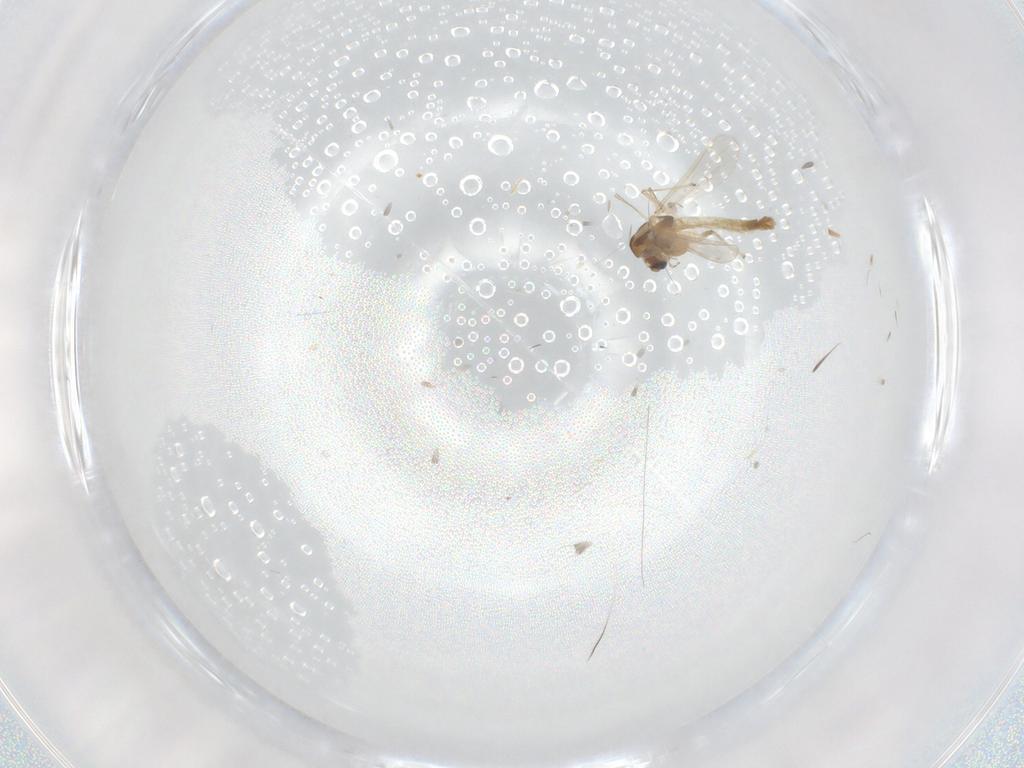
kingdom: Animalia
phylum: Arthropoda
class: Insecta
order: Diptera
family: Chironomidae
